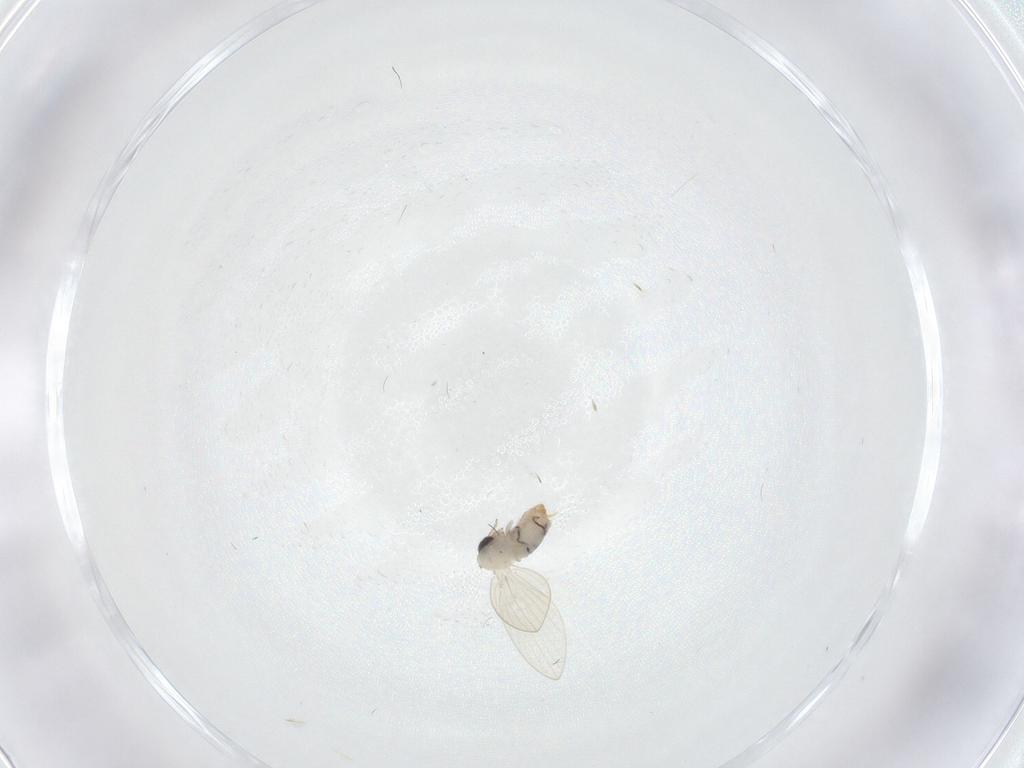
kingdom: Animalia
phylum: Arthropoda
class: Insecta
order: Diptera
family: Psychodidae
